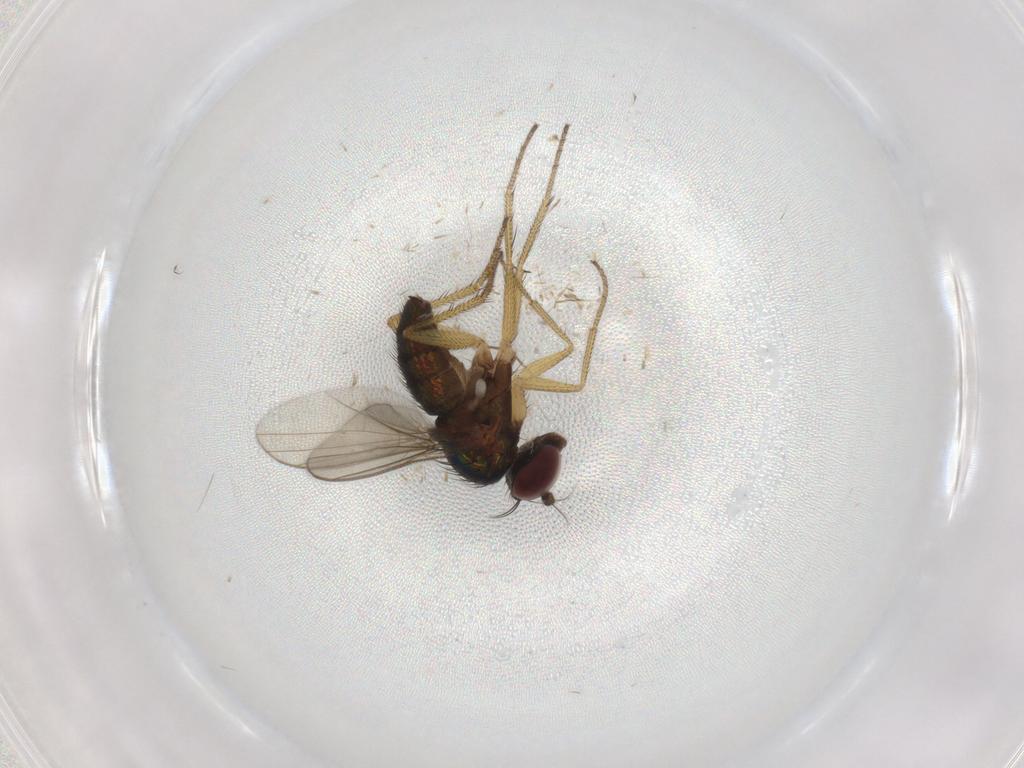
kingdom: Animalia
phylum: Arthropoda
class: Insecta
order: Diptera
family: Dolichopodidae
